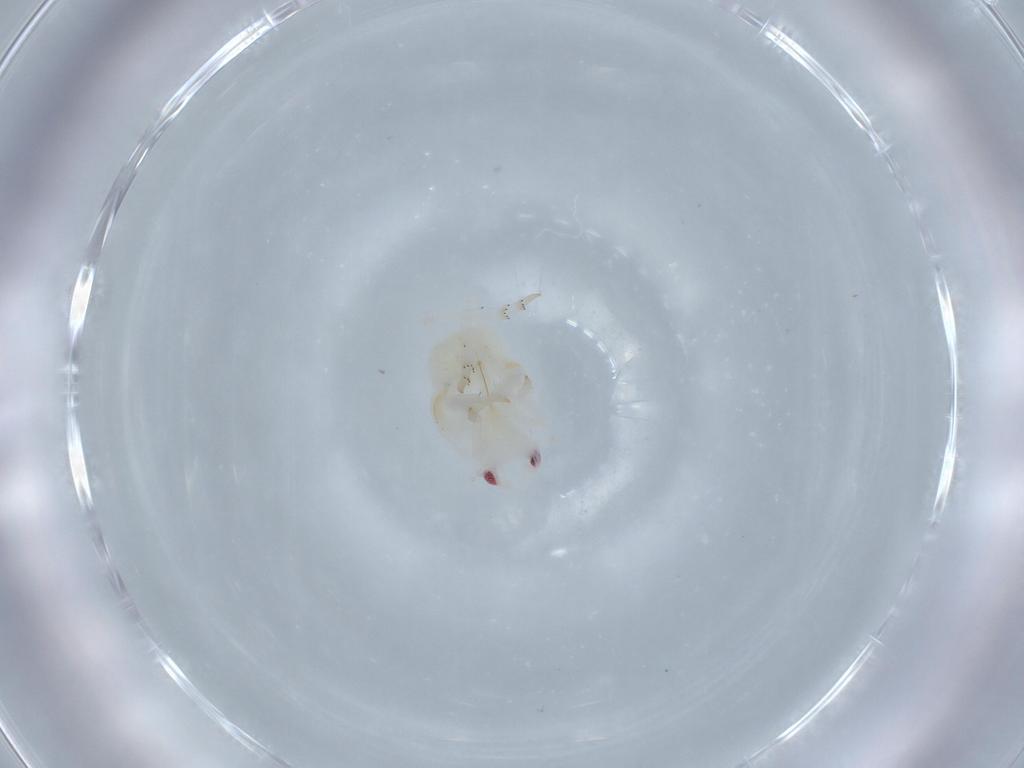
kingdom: Animalia
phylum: Arthropoda
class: Insecta
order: Hemiptera
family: Flatidae
